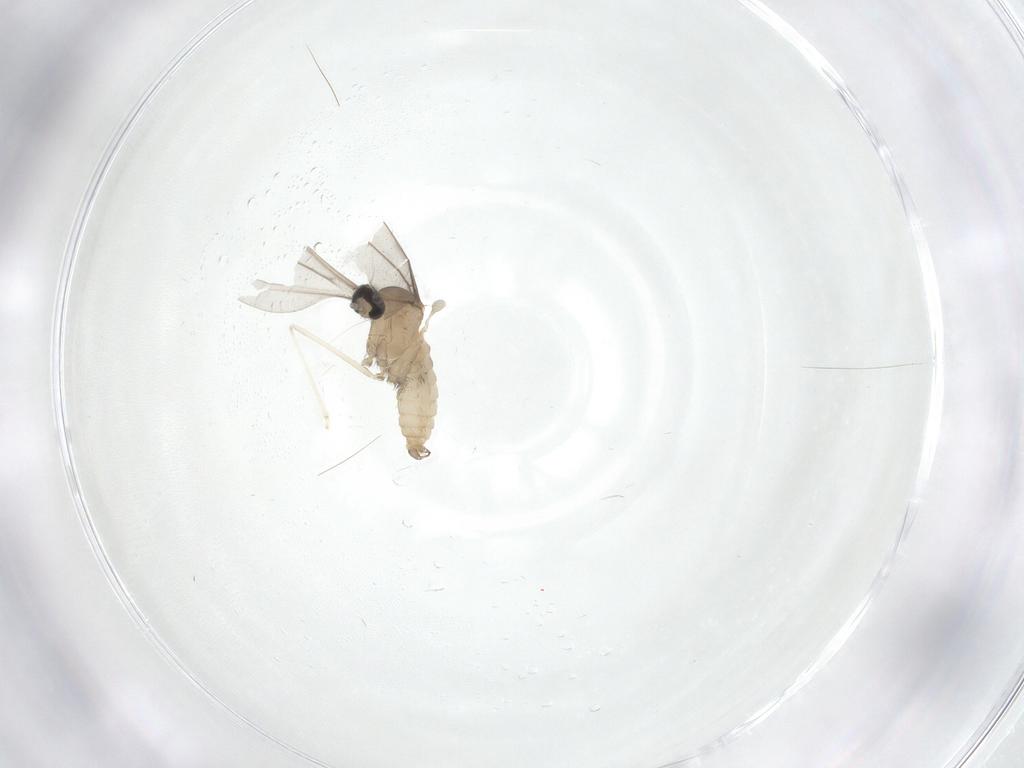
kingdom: Animalia
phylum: Arthropoda
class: Insecta
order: Diptera
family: Cecidomyiidae
